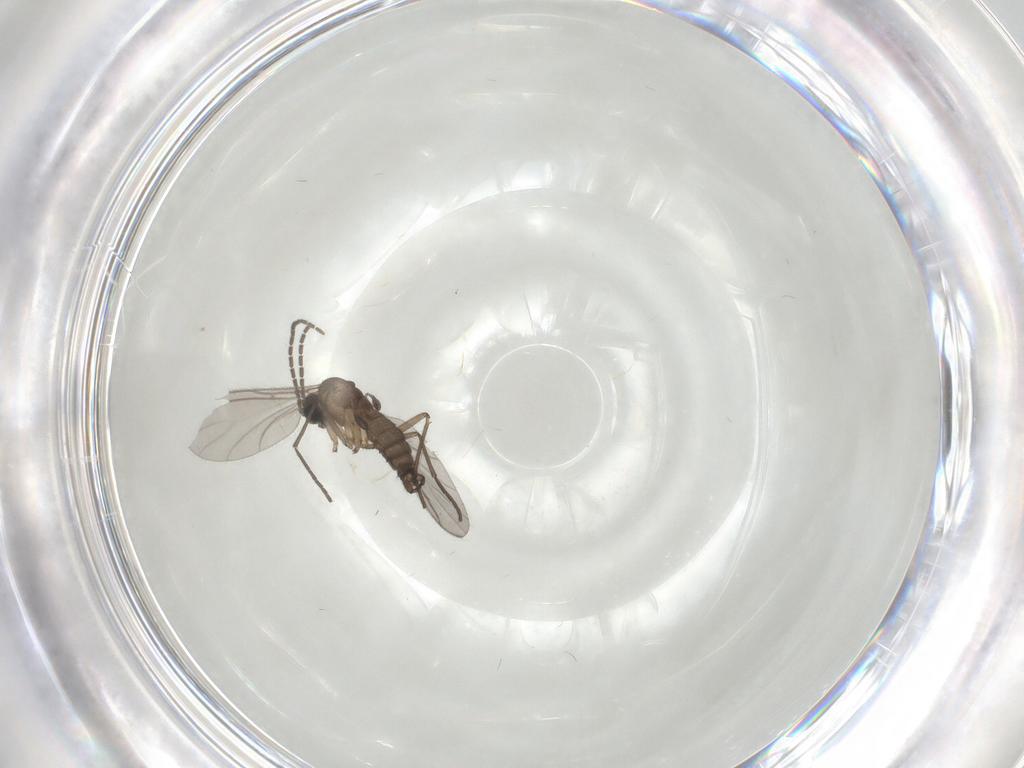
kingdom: Animalia
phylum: Arthropoda
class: Insecta
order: Diptera
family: Sciaridae
